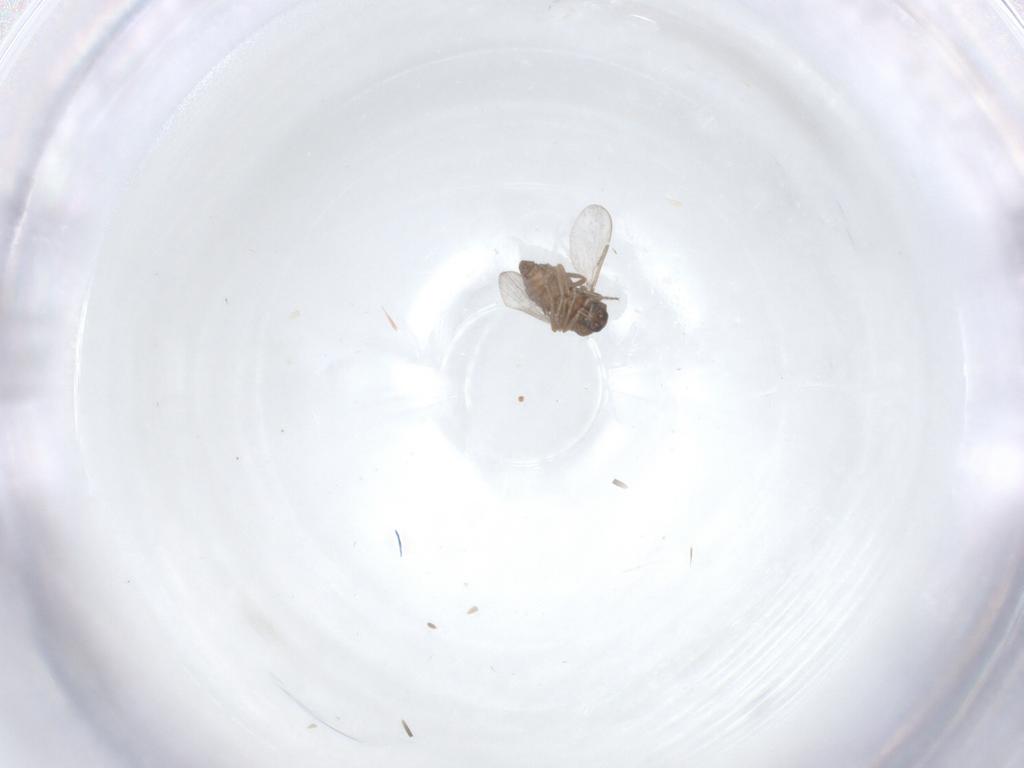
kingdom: Animalia
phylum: Arthropoda
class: Insecta
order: Diptera
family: Ceratopogonidae
